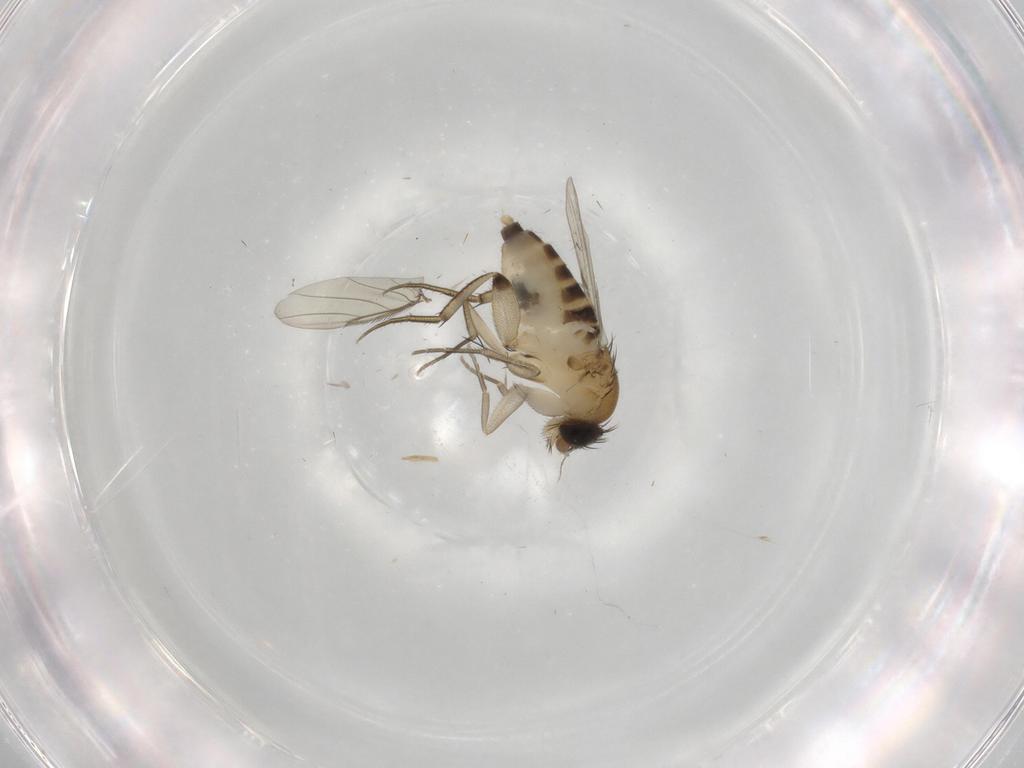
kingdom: Animalia
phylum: Arthropoda
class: Insecta
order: Diptera
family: Phoridae
